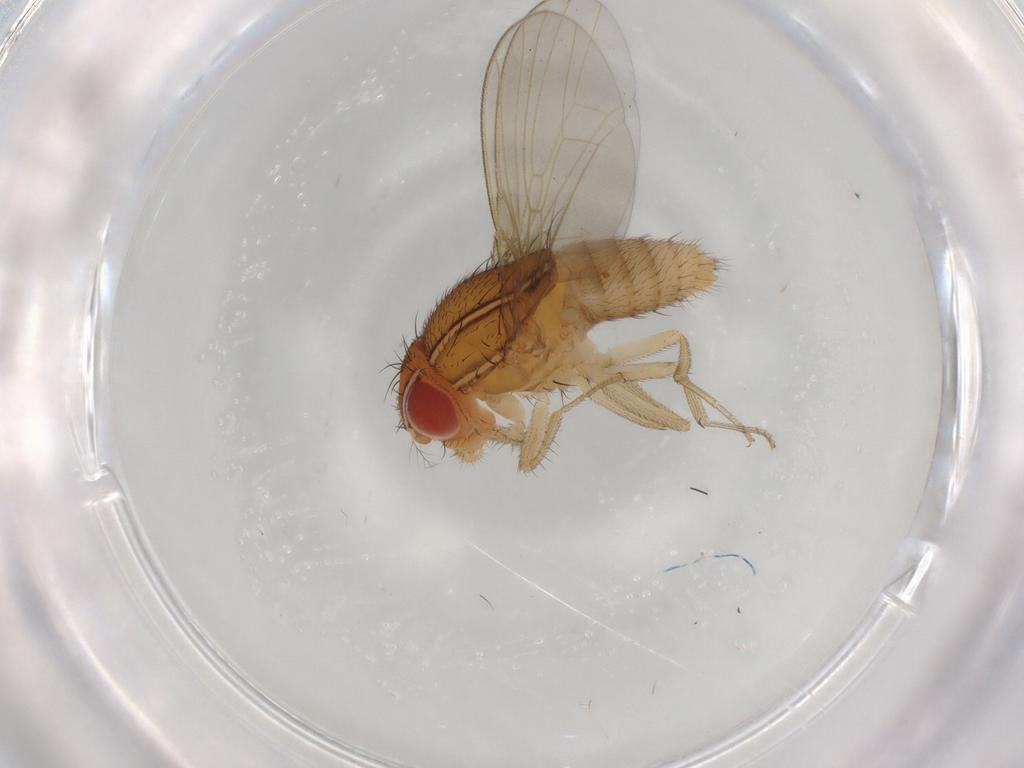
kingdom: Animalia
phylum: Arthropoda
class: Insecta
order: Diptera
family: Drosophilidae
